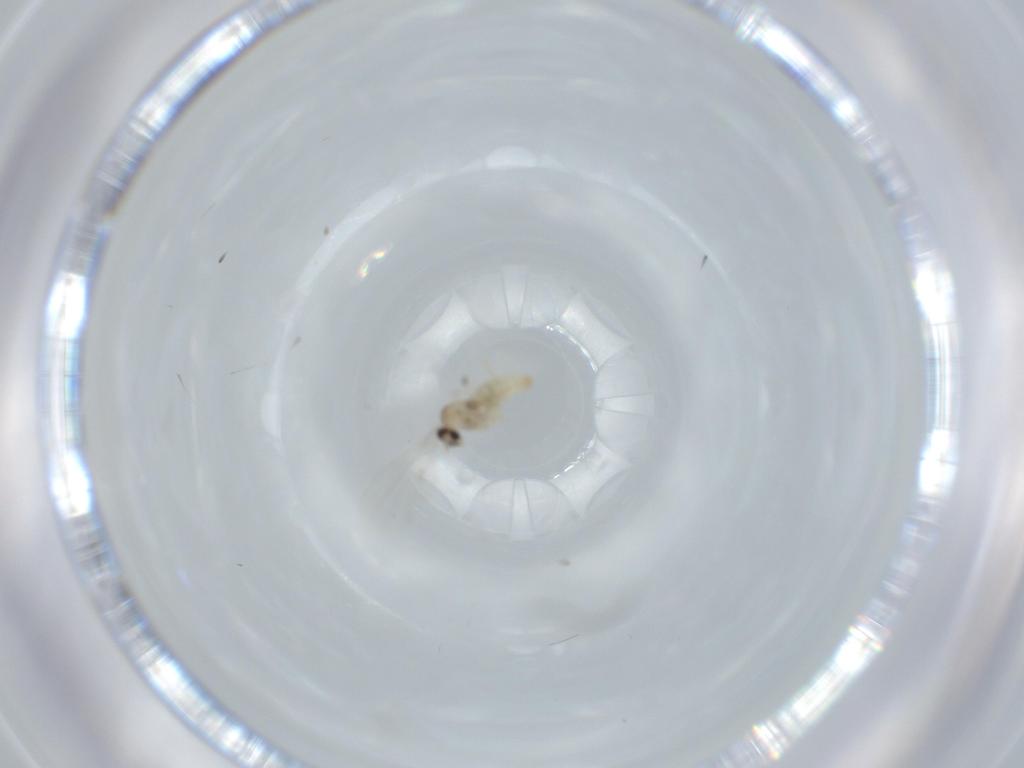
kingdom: Animalia
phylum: Arthropoda
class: Insecta
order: Diptera
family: Cecidomyiidae
